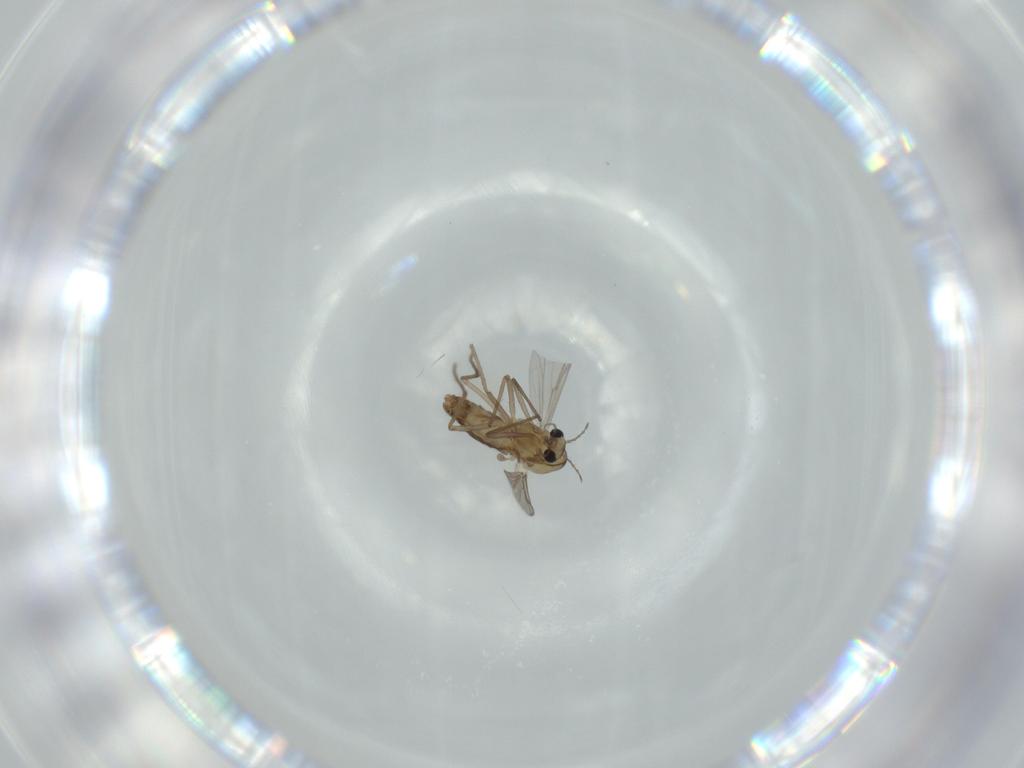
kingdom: Animalia
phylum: Arthropoda
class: Insecta
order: Diptera
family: Chironomidae
